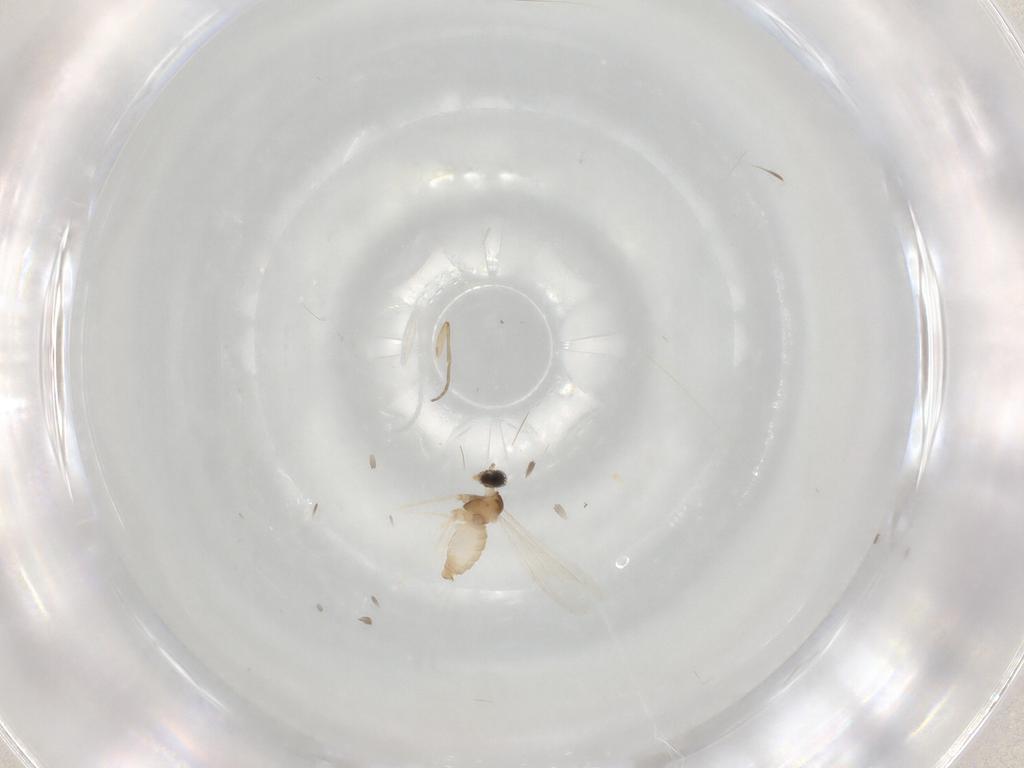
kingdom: Animalia
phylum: Arthropoda
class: Insecta
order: Diptera
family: Cecidomyiidae
